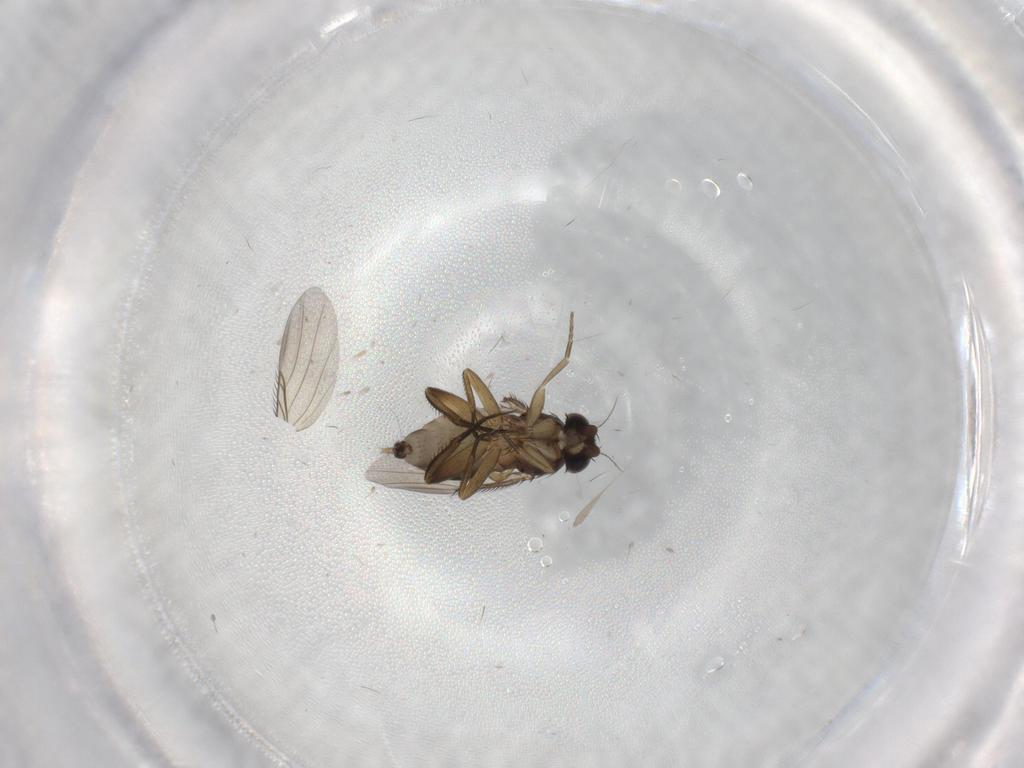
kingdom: Animalia
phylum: Arthropoda
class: Insecta
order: Diptera
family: Phoridae
